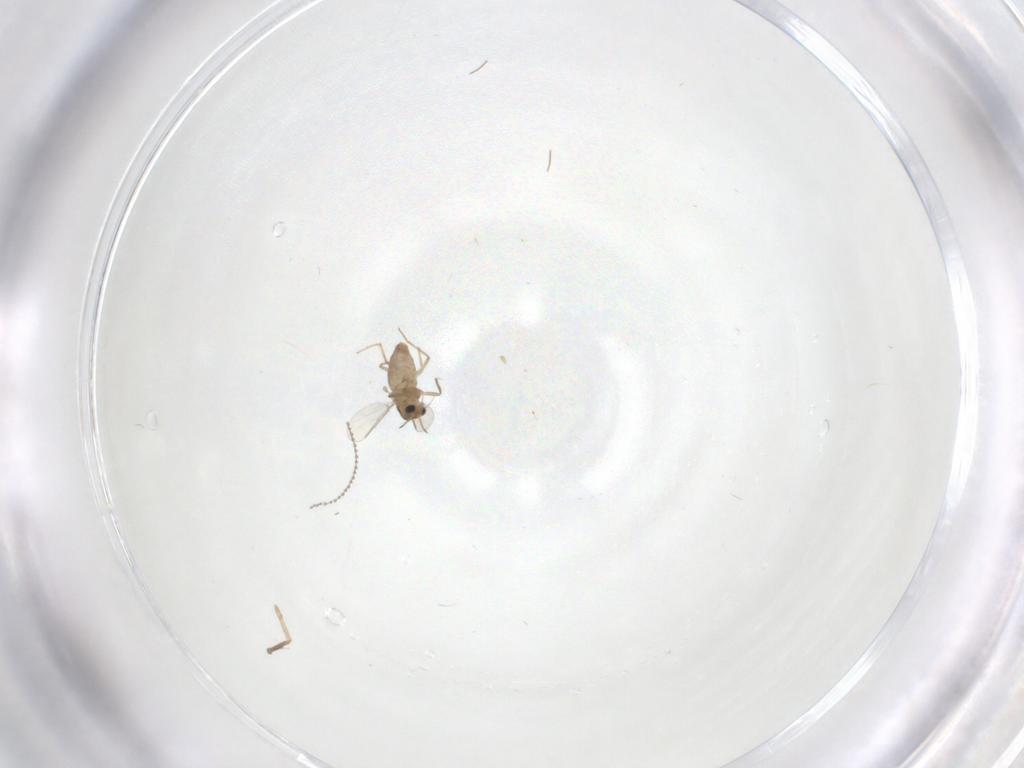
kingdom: Animalia
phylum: Arthropoda
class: Insecta
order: Diptera
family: Chironomidae
